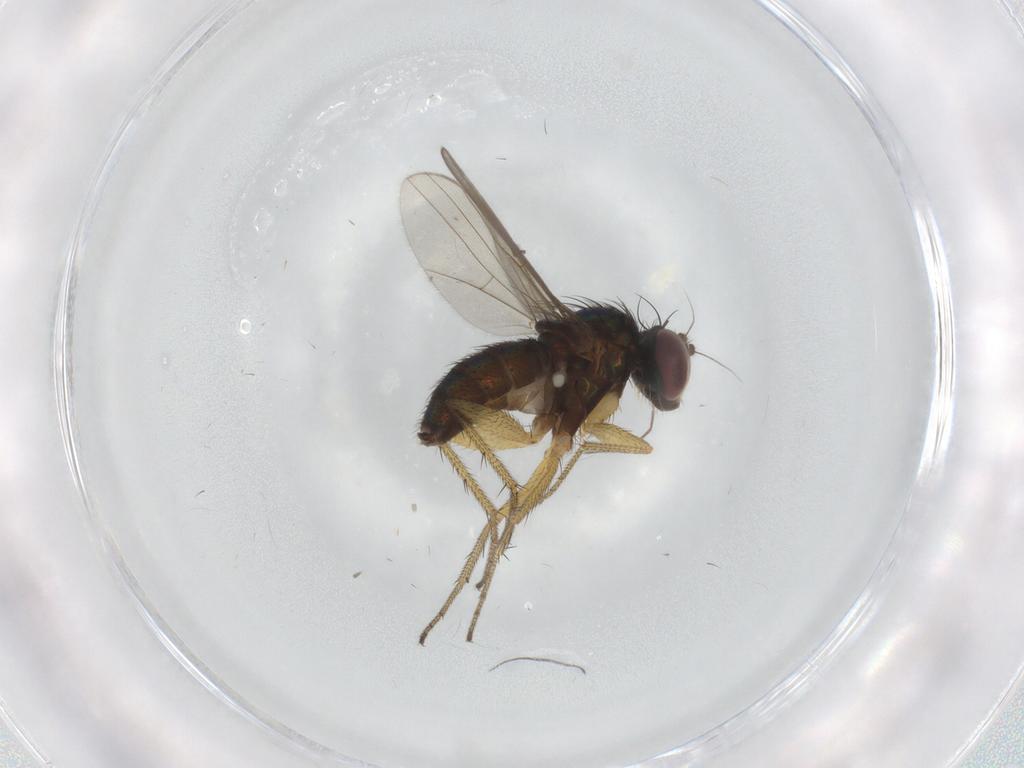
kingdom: Animalia
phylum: Arthropoda
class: Insecta
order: Diptera
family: Dolichopodidae
